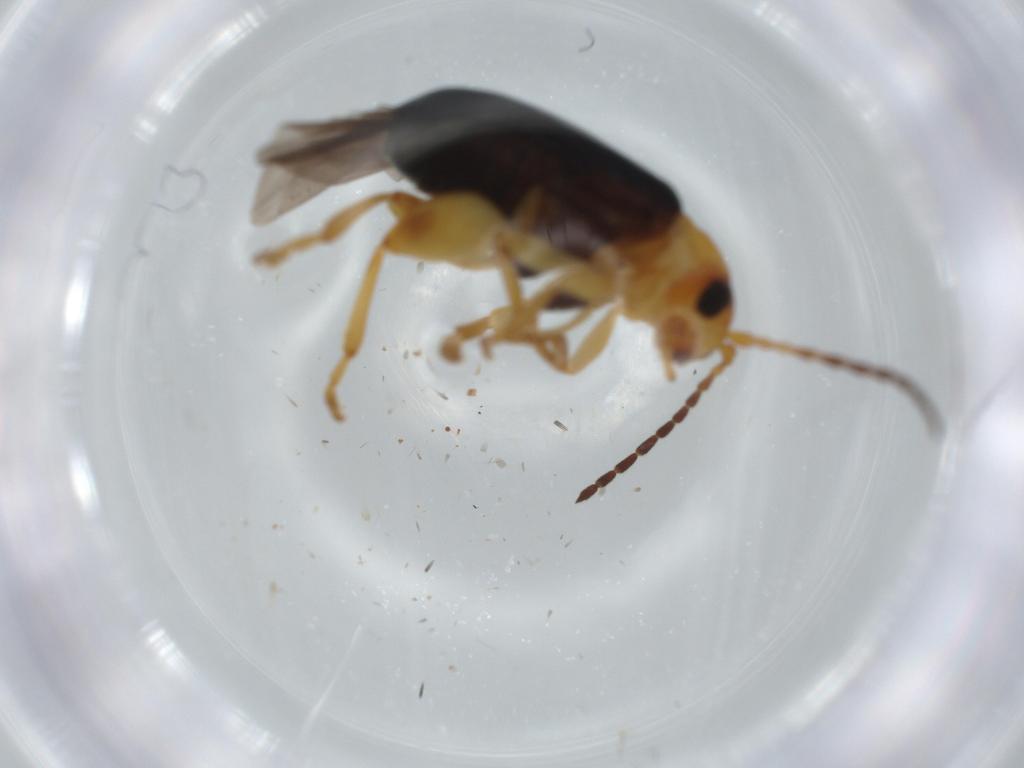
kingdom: Animalia
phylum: Arthropoda
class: Insecta
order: Coleoptera
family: Chrysomelidae
